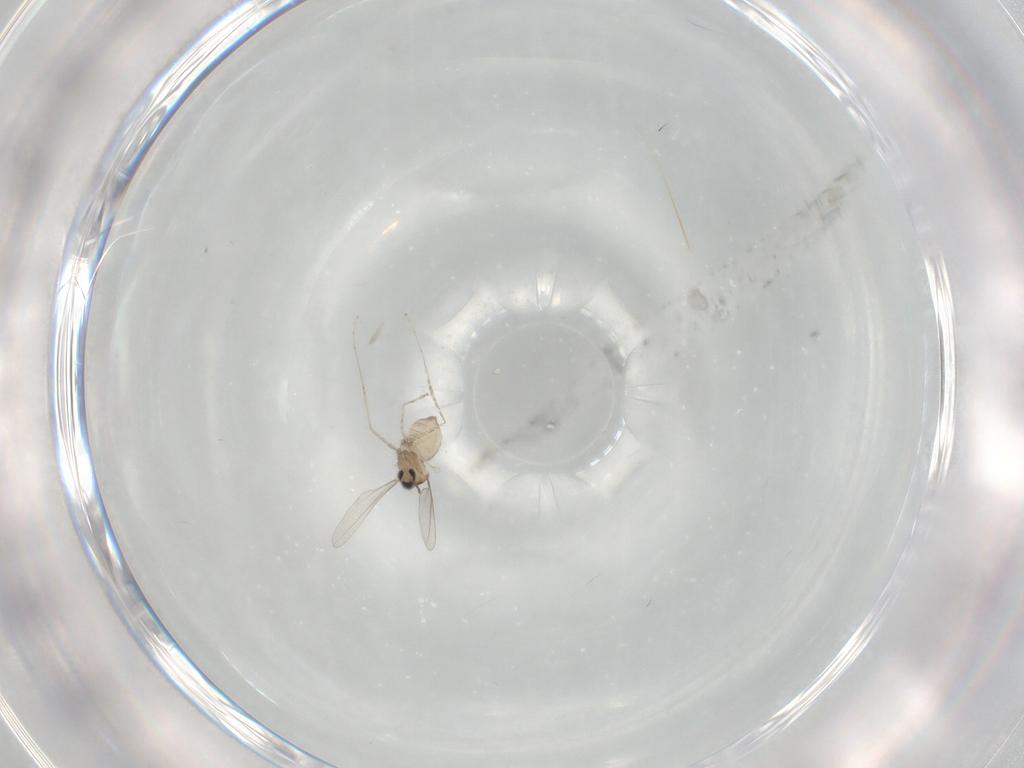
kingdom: Animalia
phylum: Arthropoda
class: Insecta
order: Diptera
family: Cecidomyiidae
